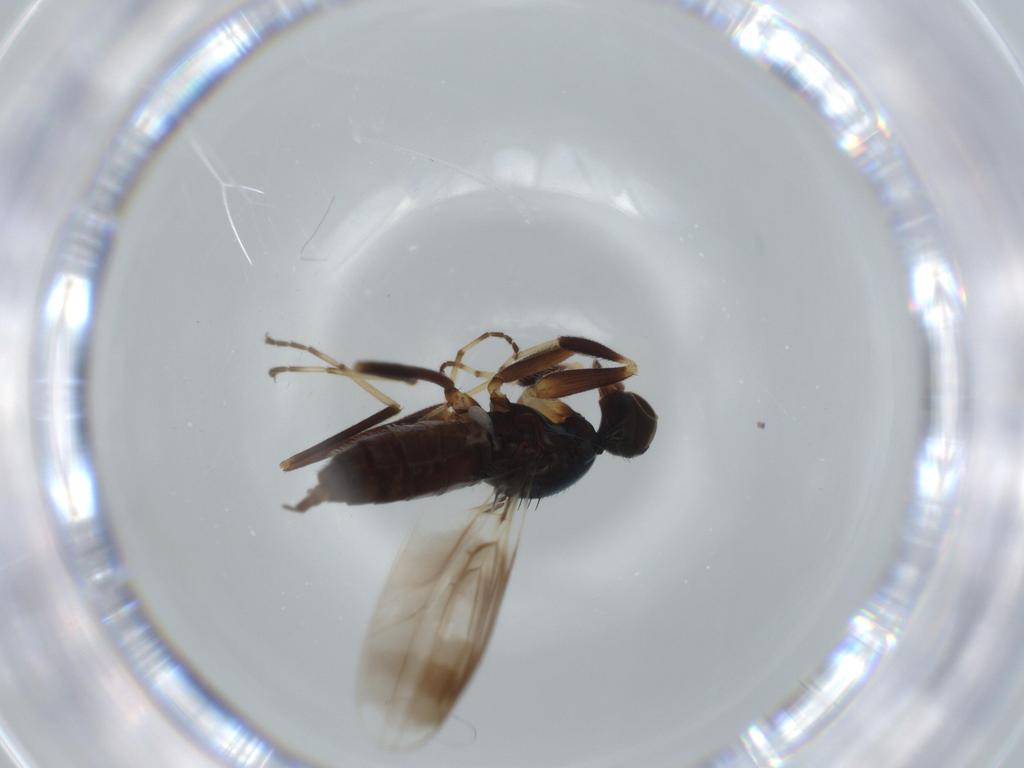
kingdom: Animalia
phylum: Arthropoda
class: Insecta
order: Diptera
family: Hybotidae
